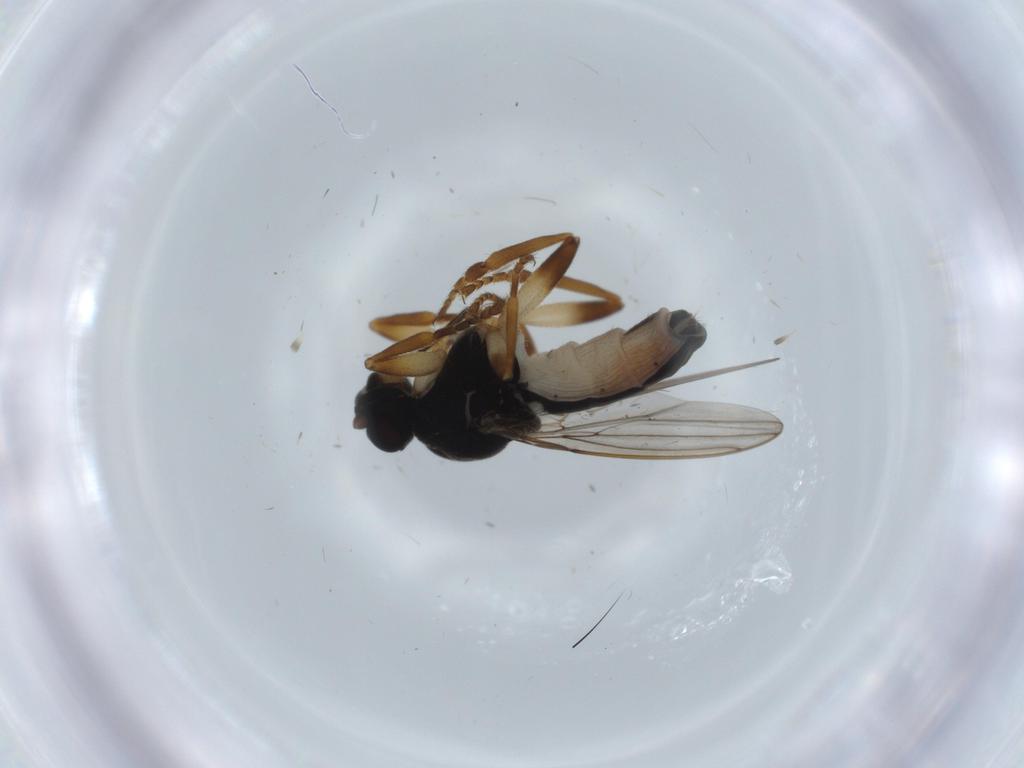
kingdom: Animalia
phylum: Arthropoda
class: Insecta
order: Diptera
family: Sphaeroceridae
